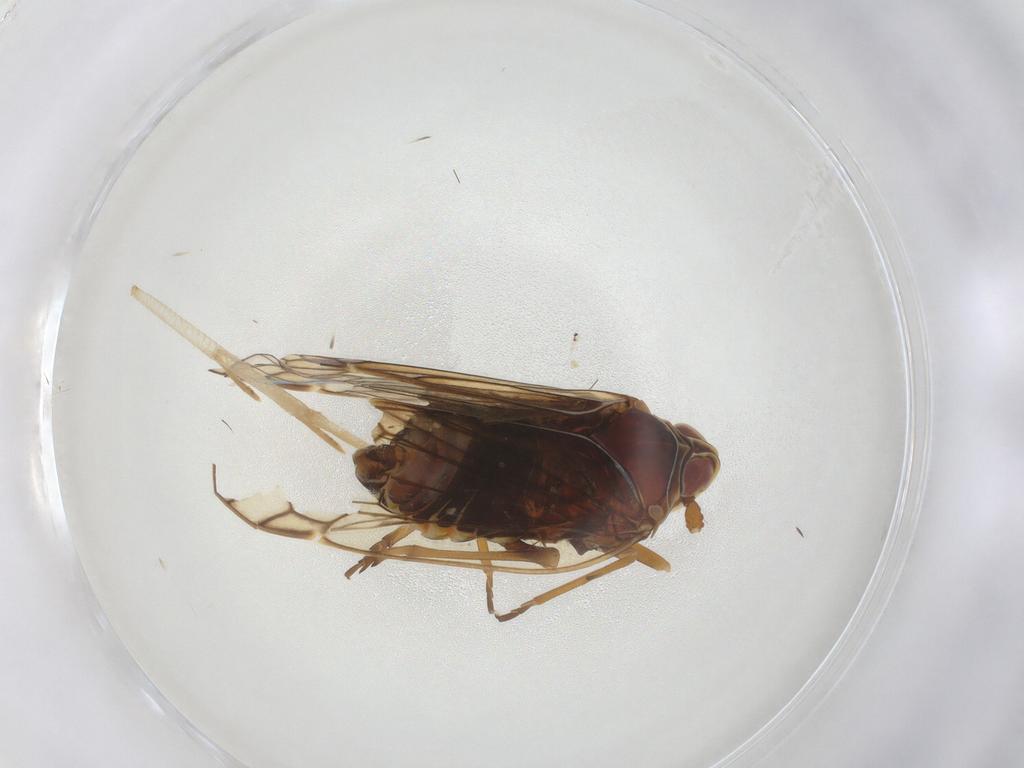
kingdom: Animalia
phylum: Arthropoda
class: Insecta
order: Hemiptera
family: Kinnaridae
